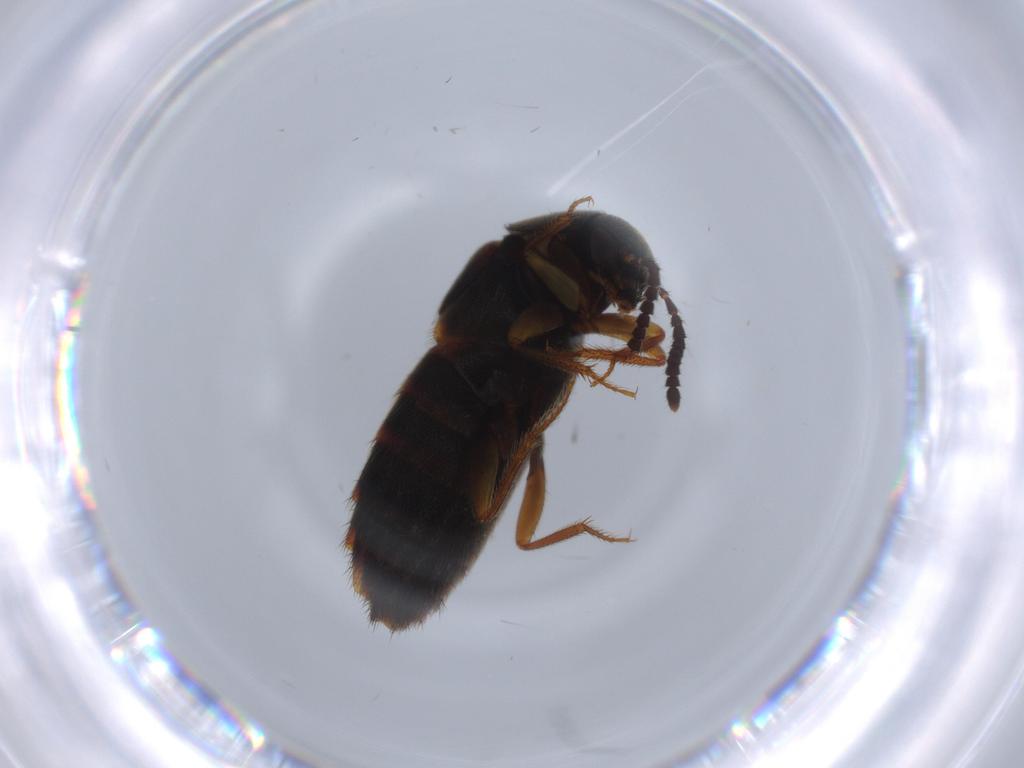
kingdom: Animalia
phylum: Arthropoda
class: Insecta
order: Coleoptera
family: Staphylinidae
